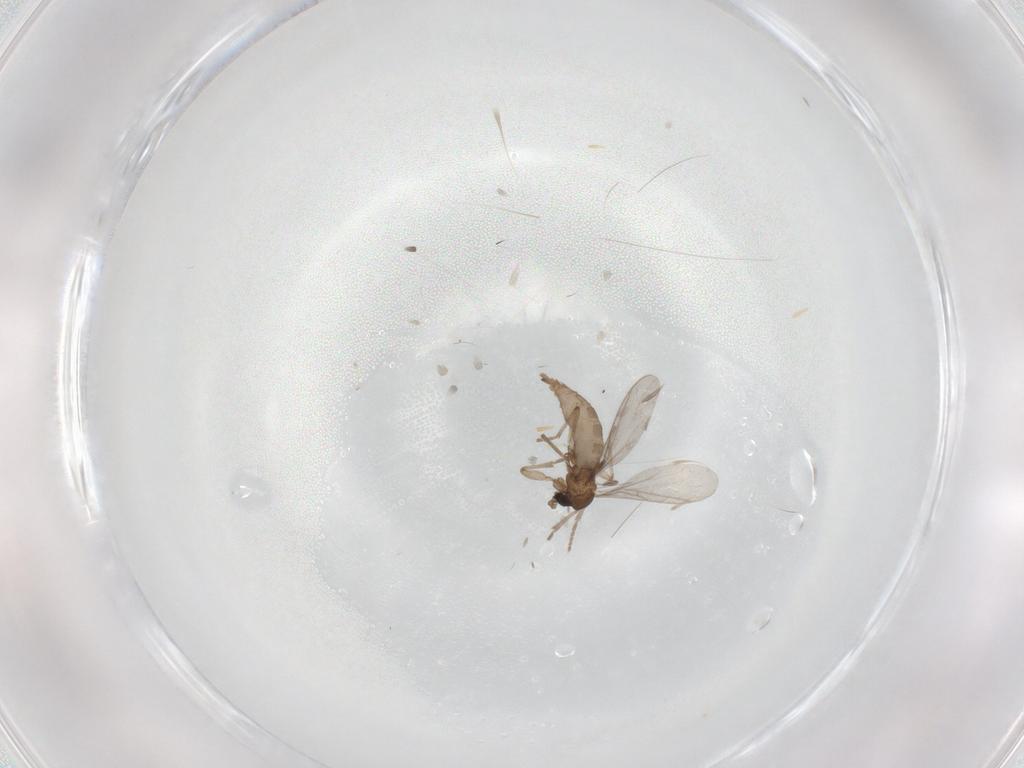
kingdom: Animalia
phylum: Arthropoda
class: Insecta
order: Diptera
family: Sciaridae
